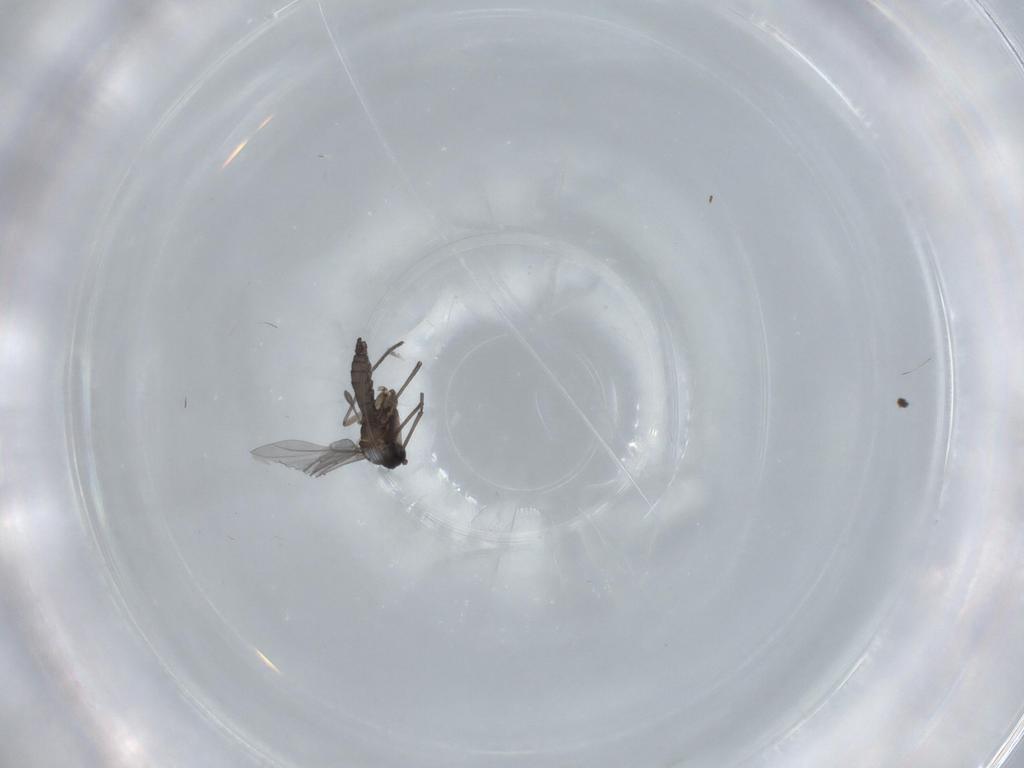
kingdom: Animalia
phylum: Arthropoda
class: Insecta
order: Diptera
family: Sciaridae
